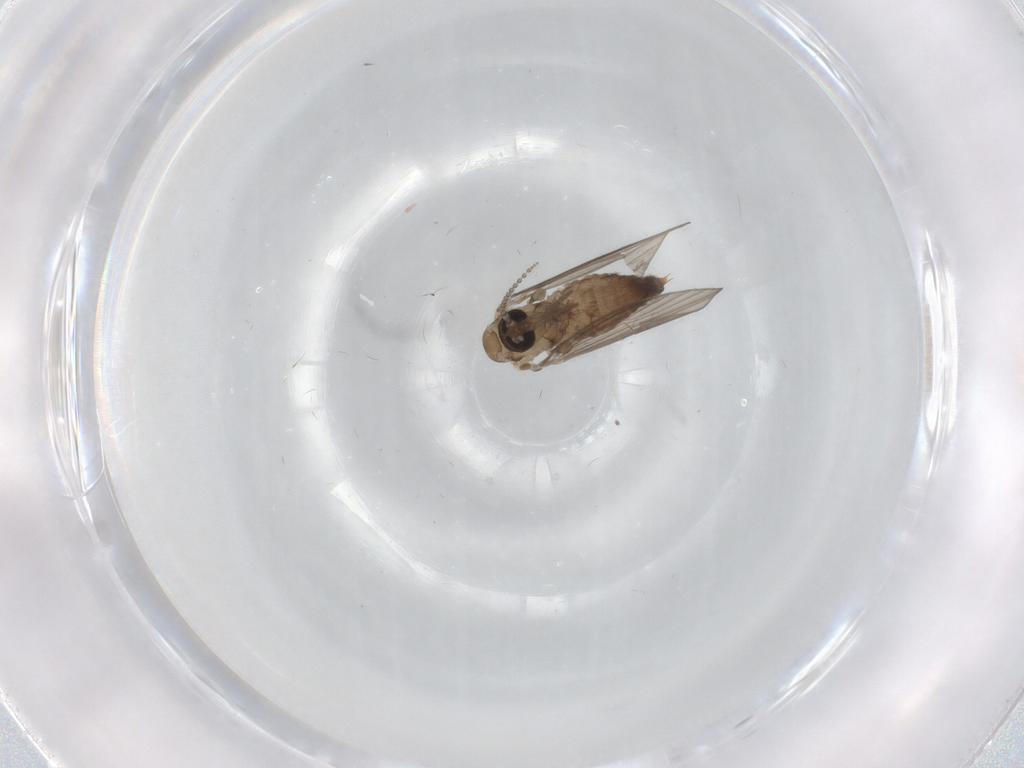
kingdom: Animalia
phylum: Arthropoda
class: Insecta
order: Diptera
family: Psychodidae
